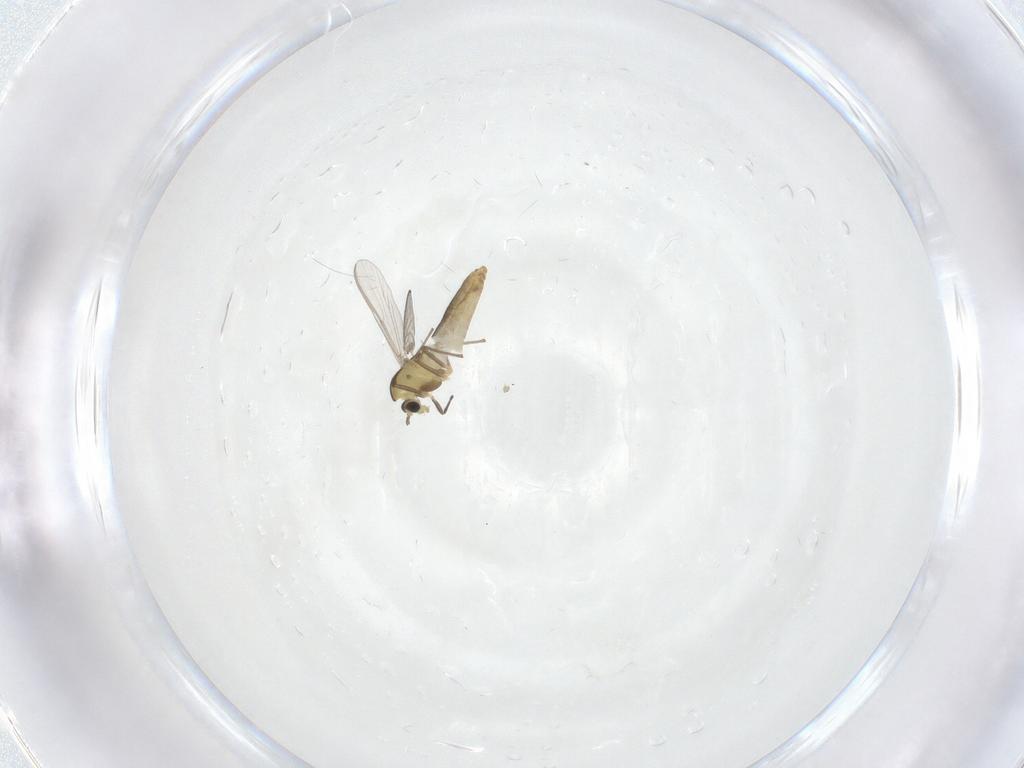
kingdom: Animalia
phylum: Arthropoda
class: Insecta
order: Diptera
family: Chironomidae
